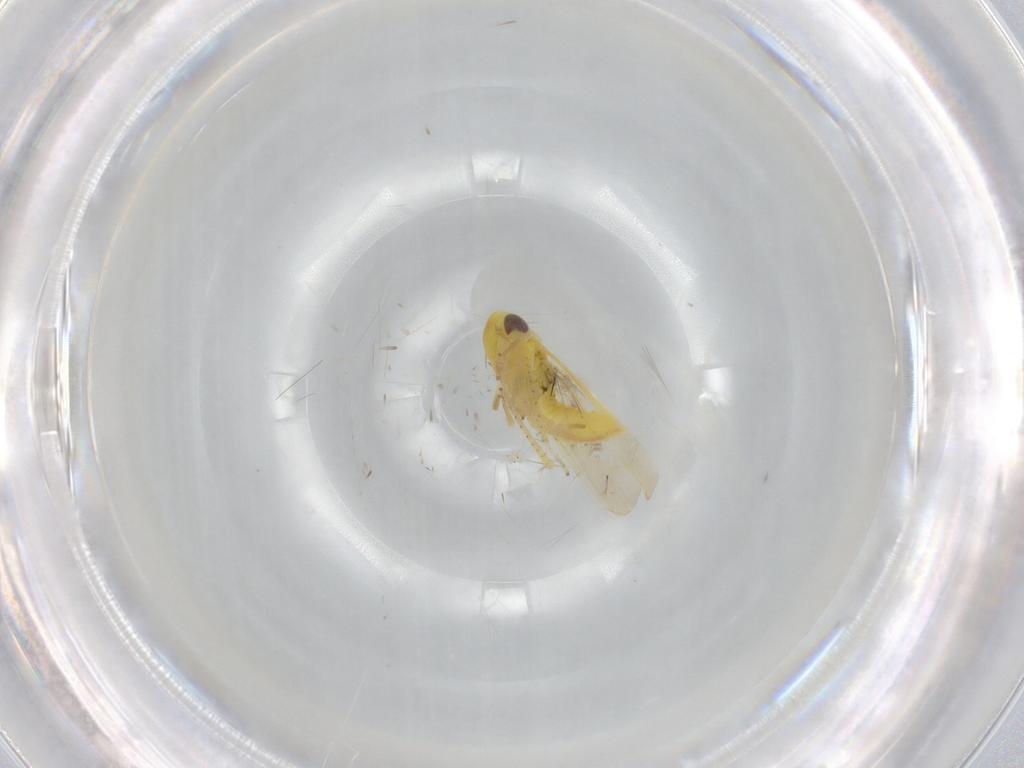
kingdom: Animalia
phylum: Arthropoda
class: Insecta
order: Hemiptera
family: Cicadellidae
